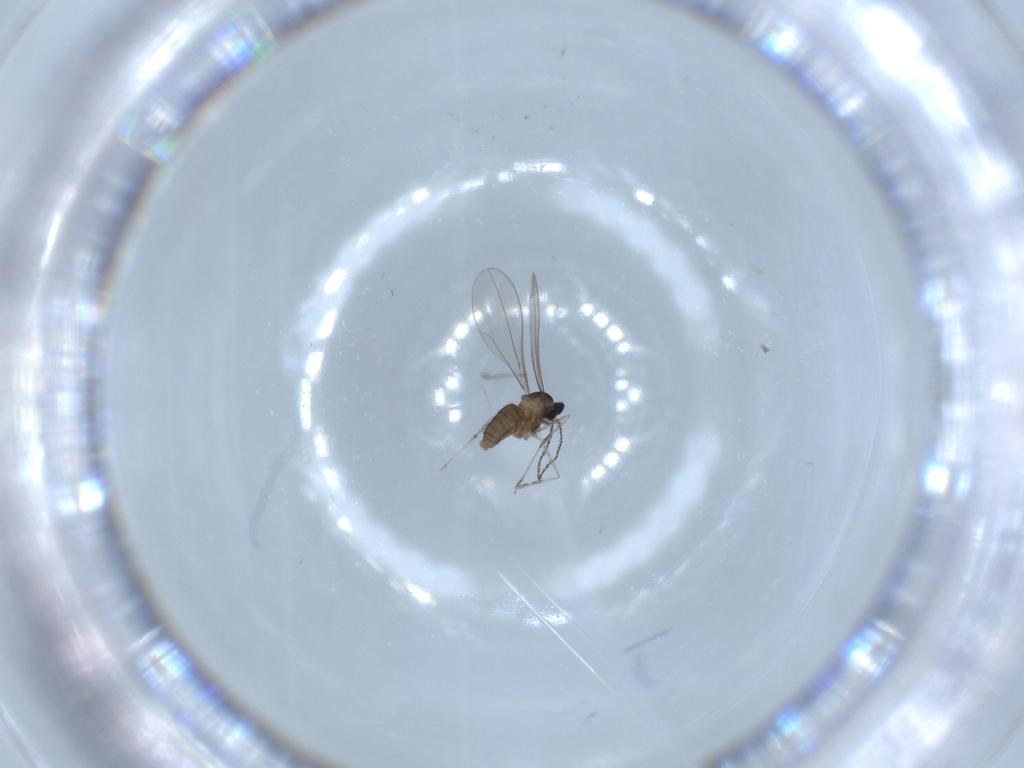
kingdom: Animalia
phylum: Arthropoda
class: Insecta
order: Diptera
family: Cecidomyiidae
